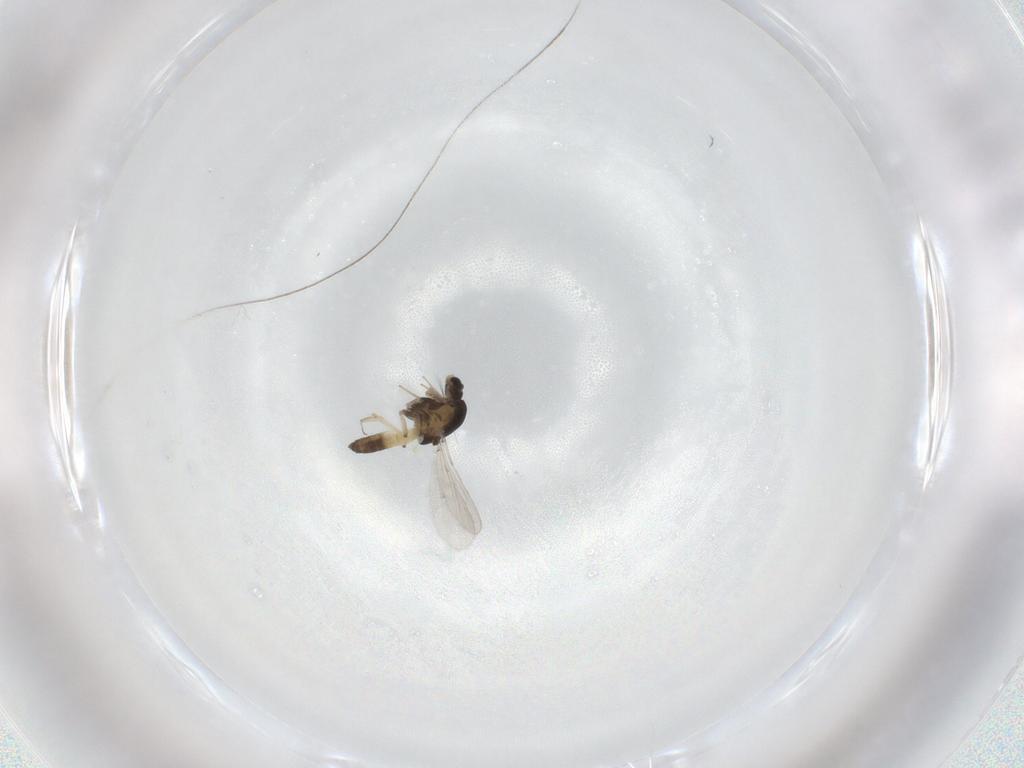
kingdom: Animalia
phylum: Arthropoda
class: Insecta
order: Diptera
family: Chironomidae
